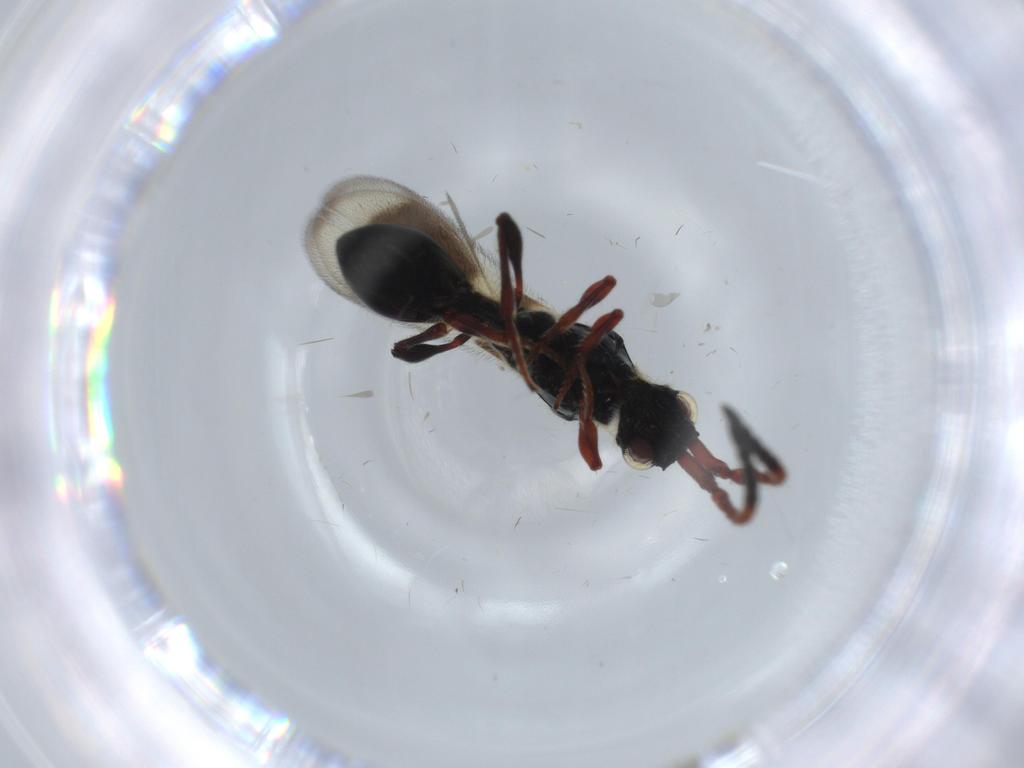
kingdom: Animalia
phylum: Arthropoda
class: Insecta
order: Hymenoptera
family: Diapriidae
